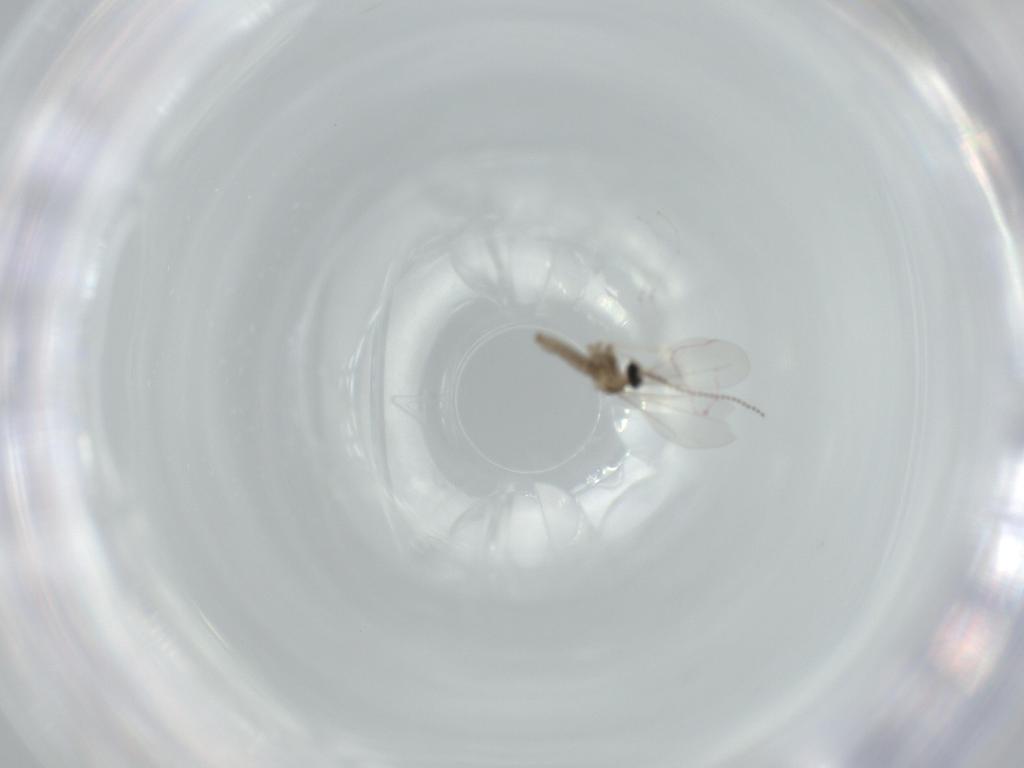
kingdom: Animalia
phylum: Arthropoda
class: Insecta
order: Diptera
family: Cecidomyiidae
